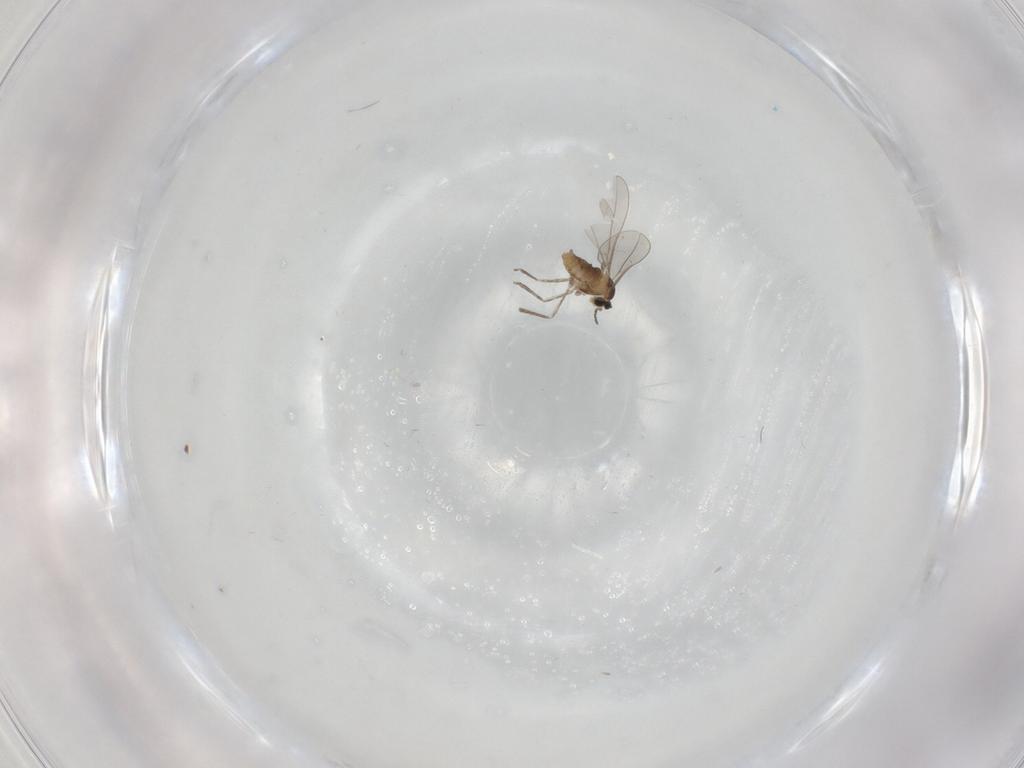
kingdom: Animalia
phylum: Arthropoda
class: Insecta
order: Diptera
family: Cecidomyiidae
